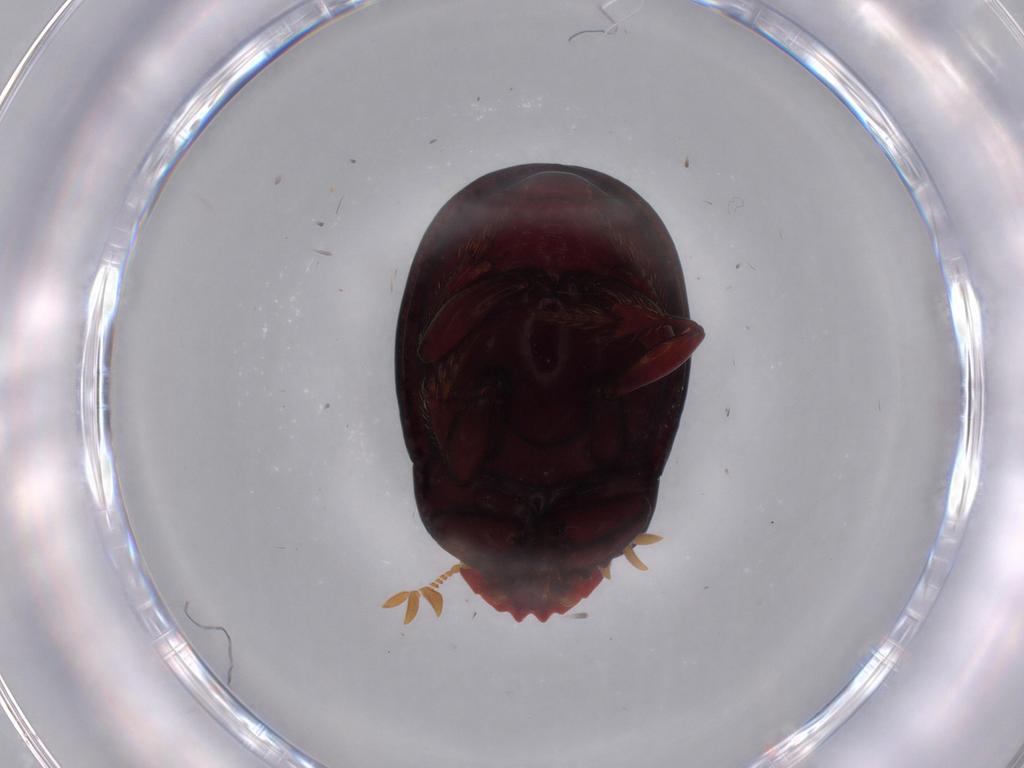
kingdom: Animalia
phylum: Arthropoda
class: Insecta
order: Coleoptera
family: Scarabaeidae
